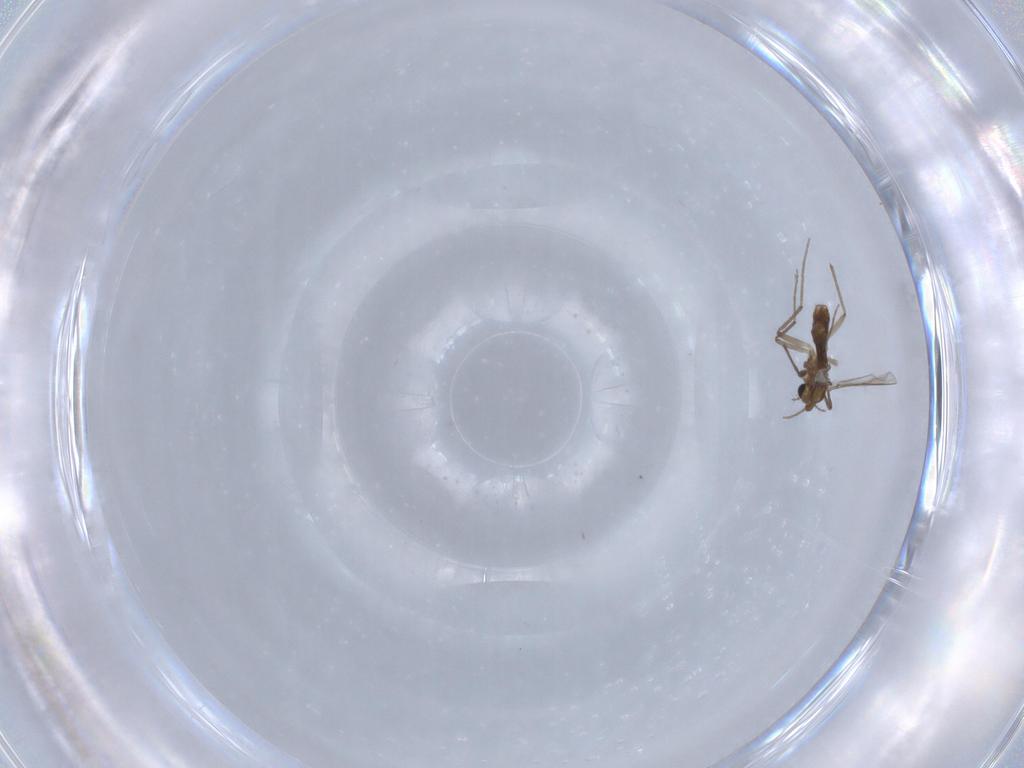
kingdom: Animalia
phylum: Arthropoda
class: Insecta
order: Diptera
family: Chironomidae
